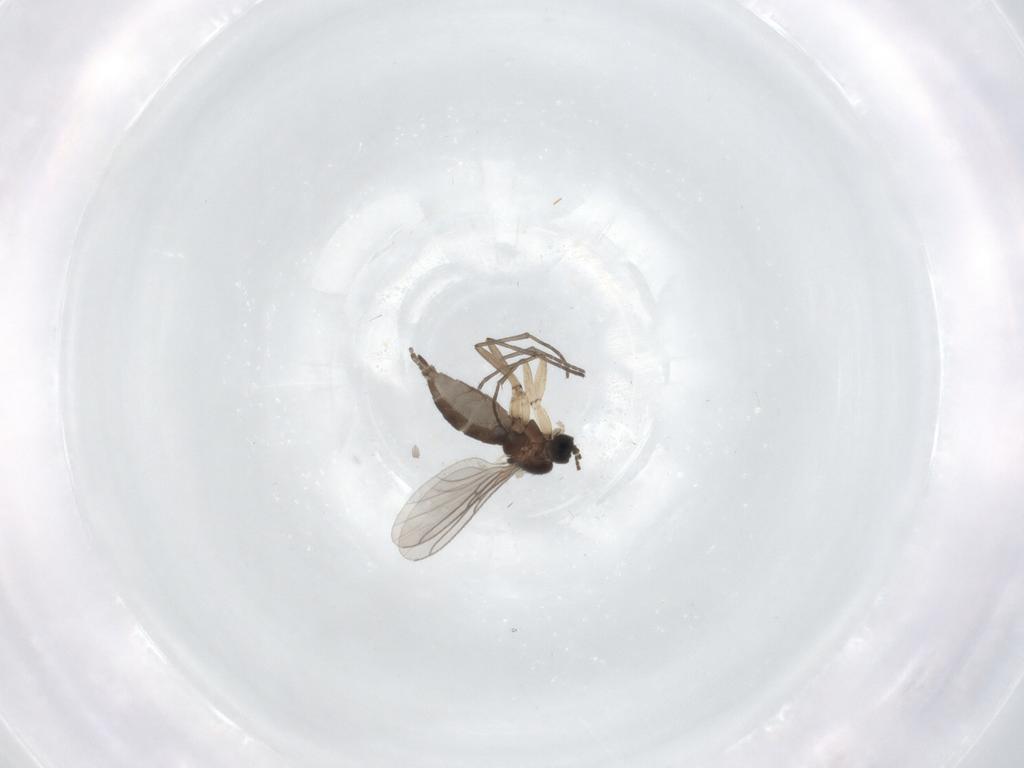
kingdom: Animalia
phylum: Arthropoda
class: Insecta
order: Diptera
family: Sciaridae
